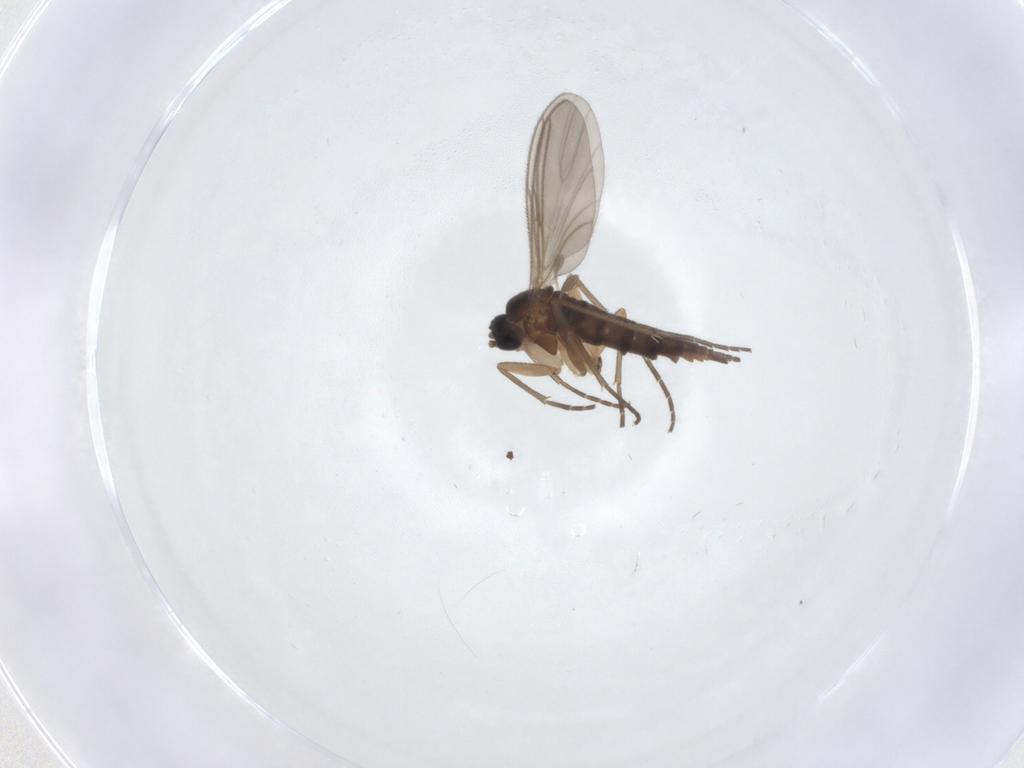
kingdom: Animalia
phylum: Arthropoda
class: Insecta
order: Diptera
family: Sciaridae
